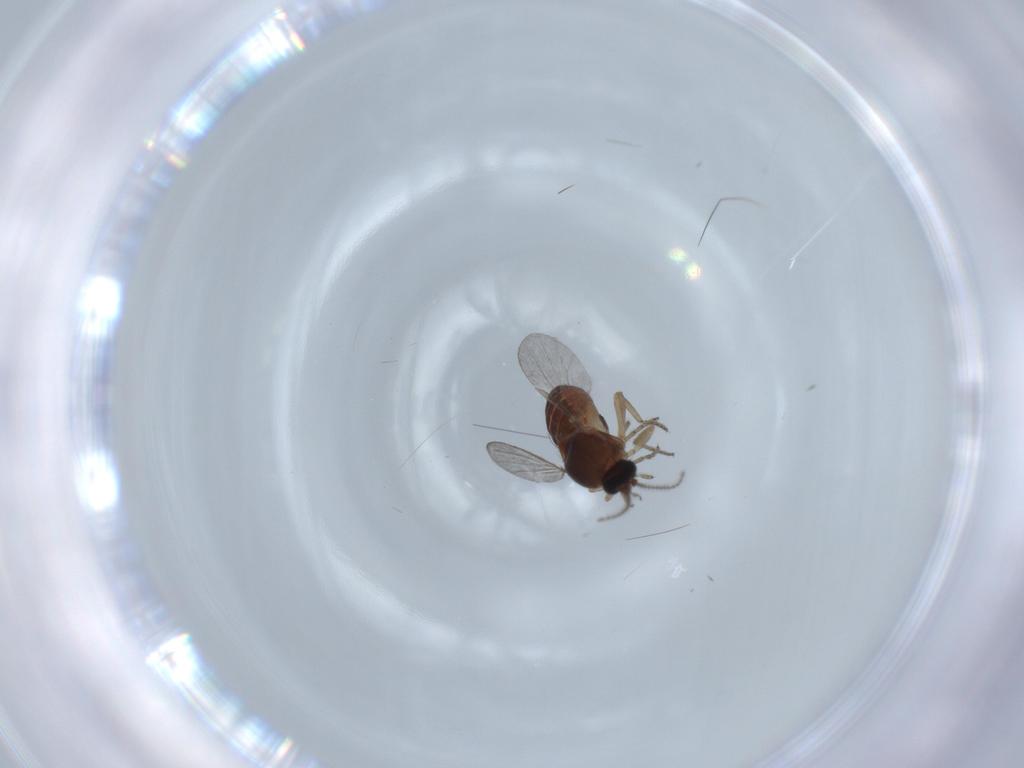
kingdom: Animalia
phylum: Arthropoda
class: Insecta
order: Diptera
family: Ceratopogonidae
